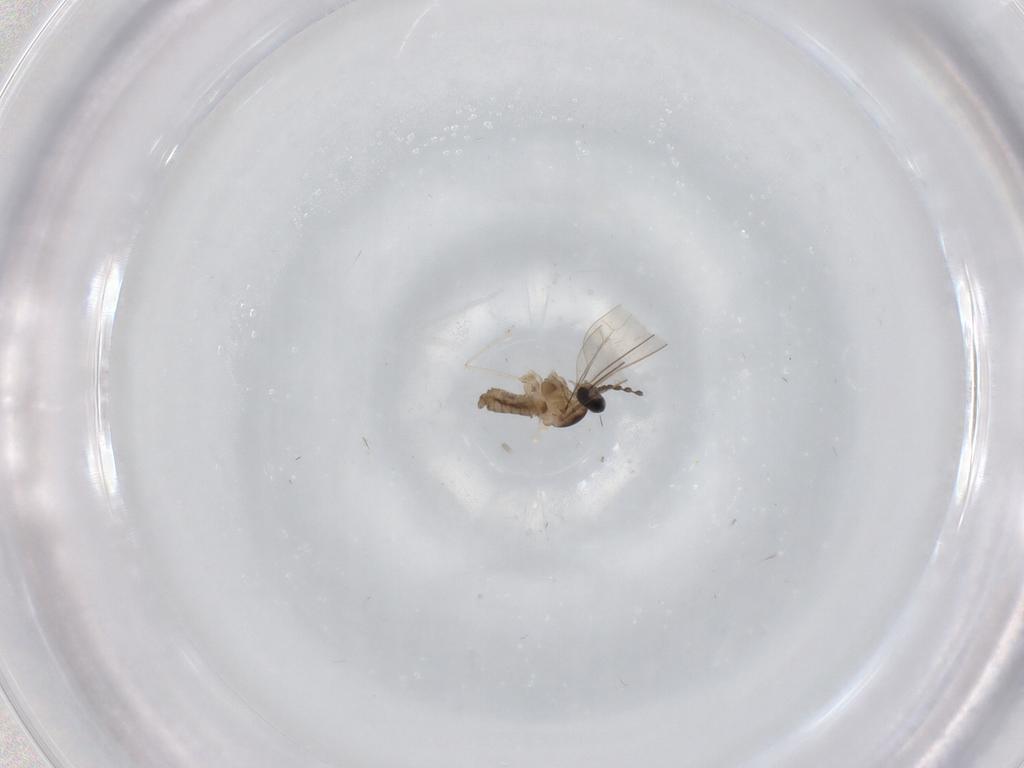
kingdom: Animalia
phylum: Arthropoda
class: Insecta
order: Diptera
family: Cecidomyiidae
